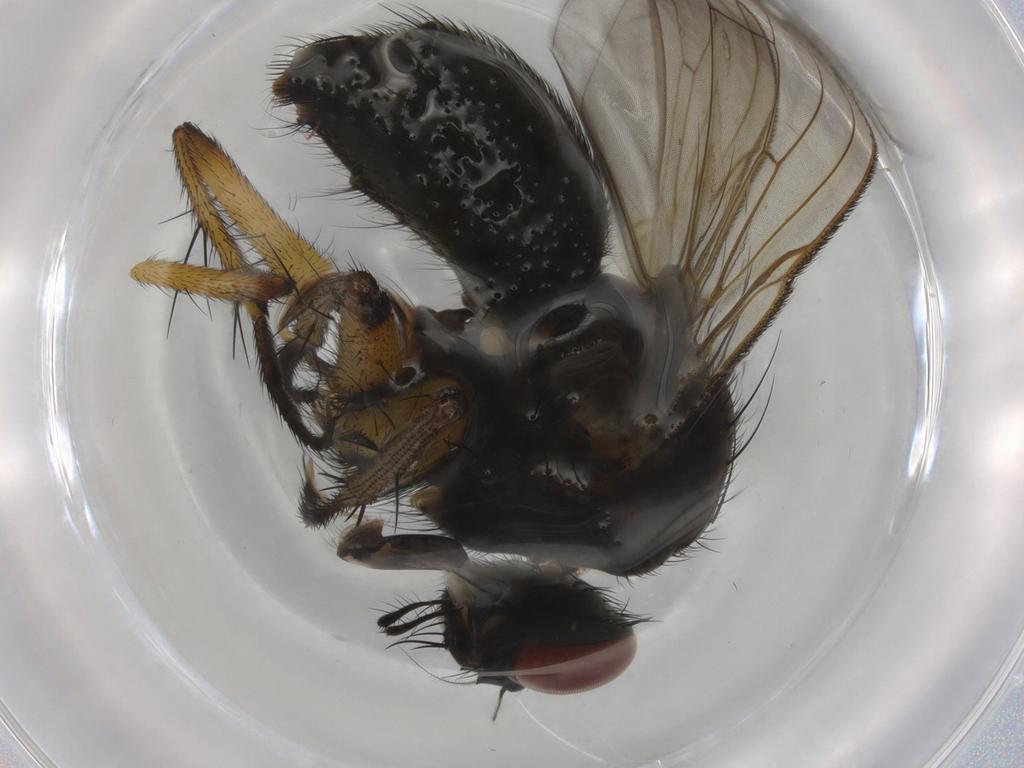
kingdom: Animalia
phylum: Arthropoda
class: Insecta
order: Diptera
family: Muscidae
